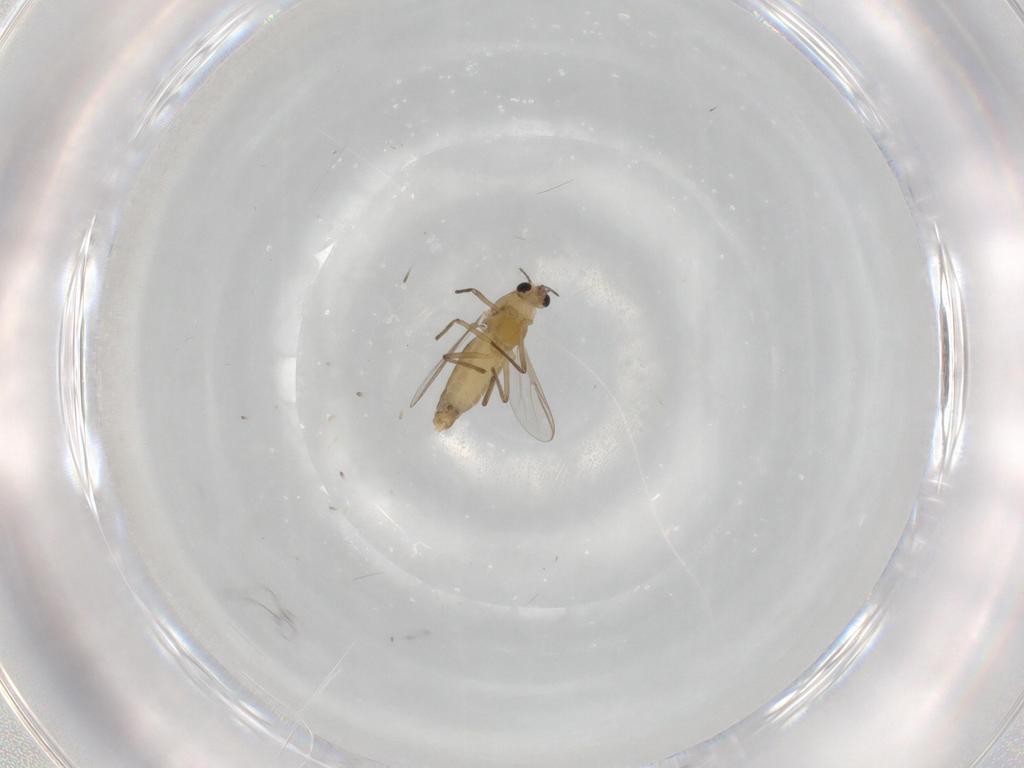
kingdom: Animalia
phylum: Arthropoda
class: Insecta
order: Diptera
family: Chironomidae
